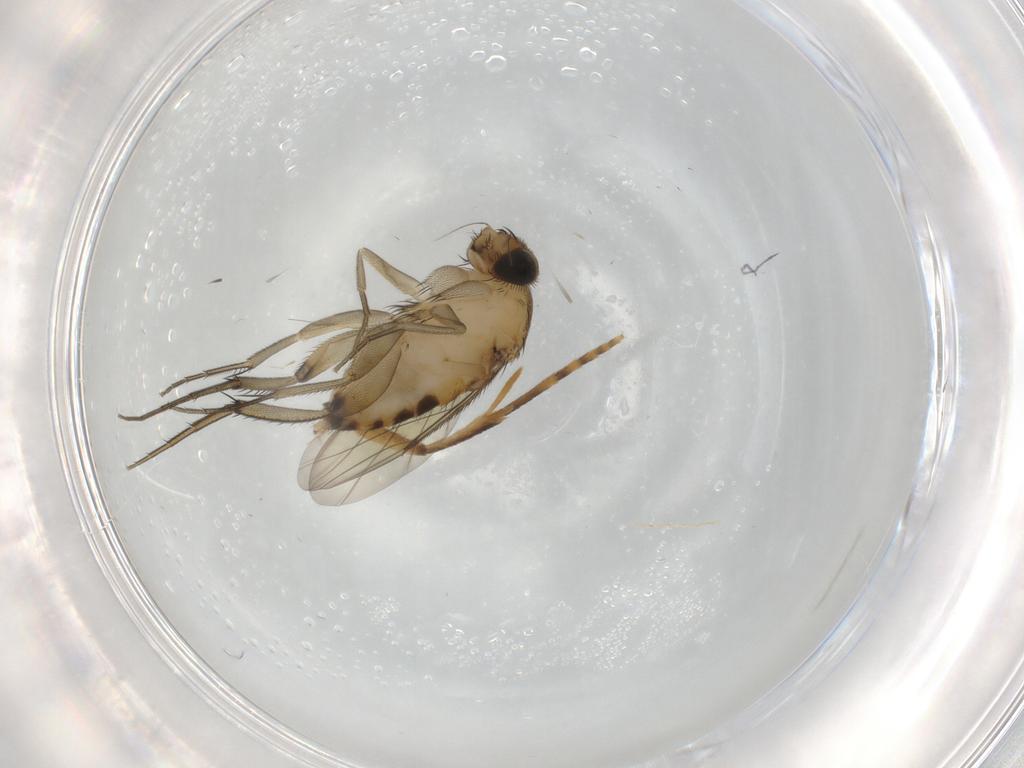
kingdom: Animalia
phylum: Arthropoda
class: Insecta
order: Diptera
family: Phoridae
